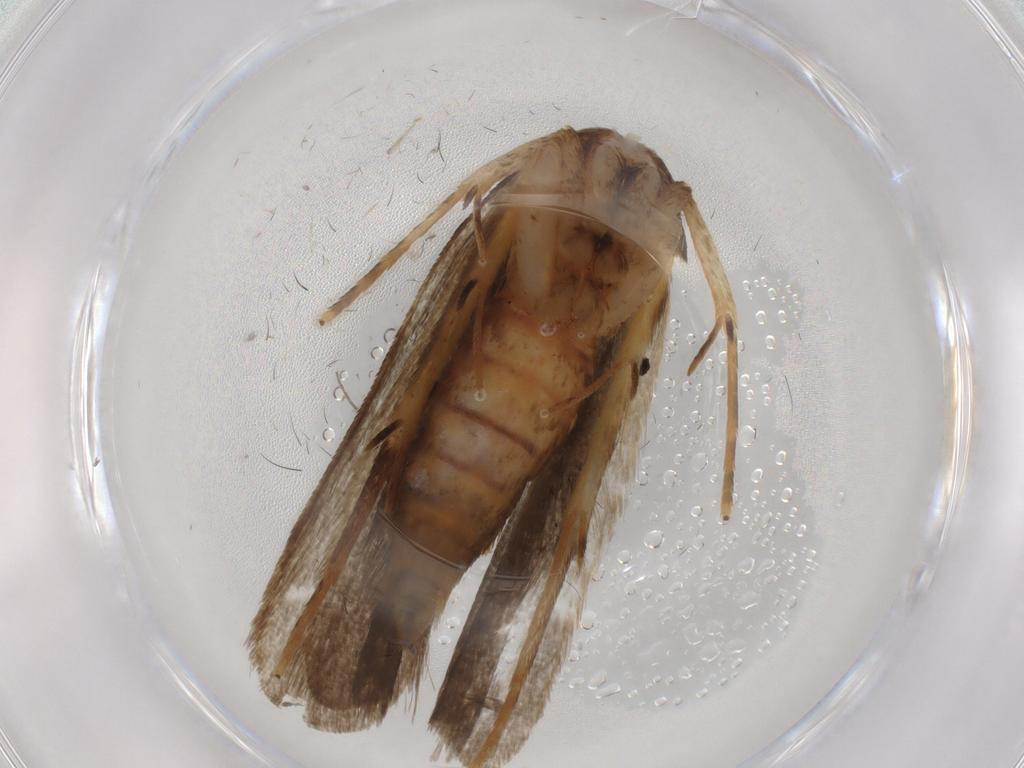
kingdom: Animalia
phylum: Arthropoda
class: Insecta
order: Lepidoptera
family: Autostichidae
